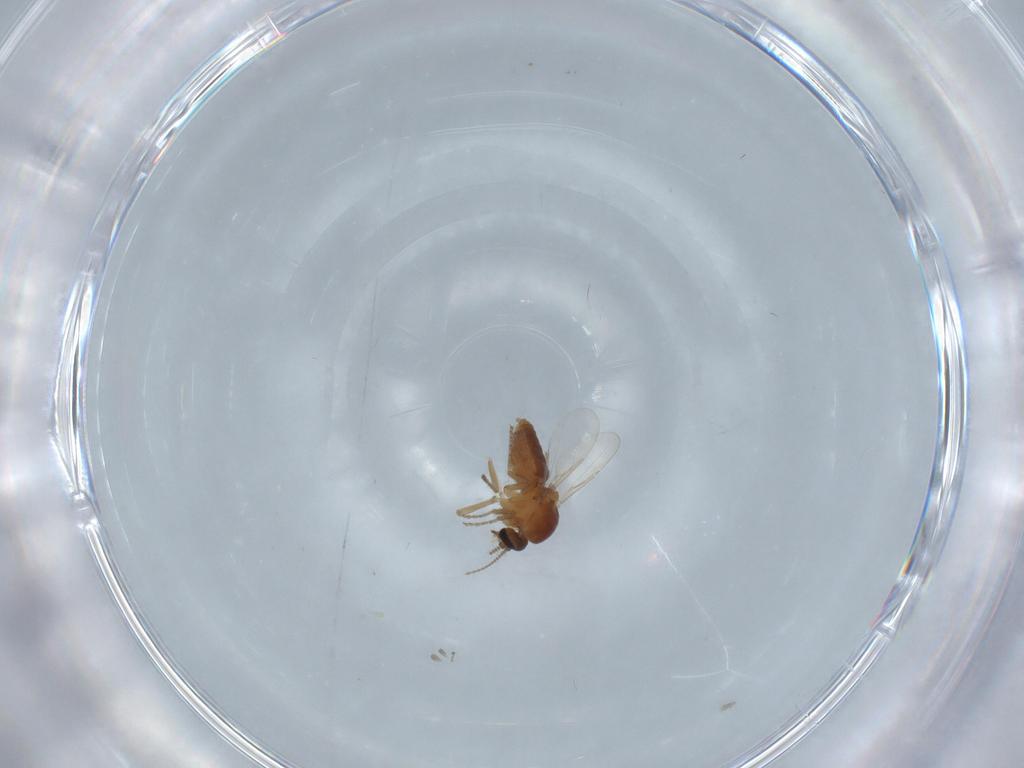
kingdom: Animalia
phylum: Arthropoda
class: Insecta
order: Diptera
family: Ceratopogonidae
